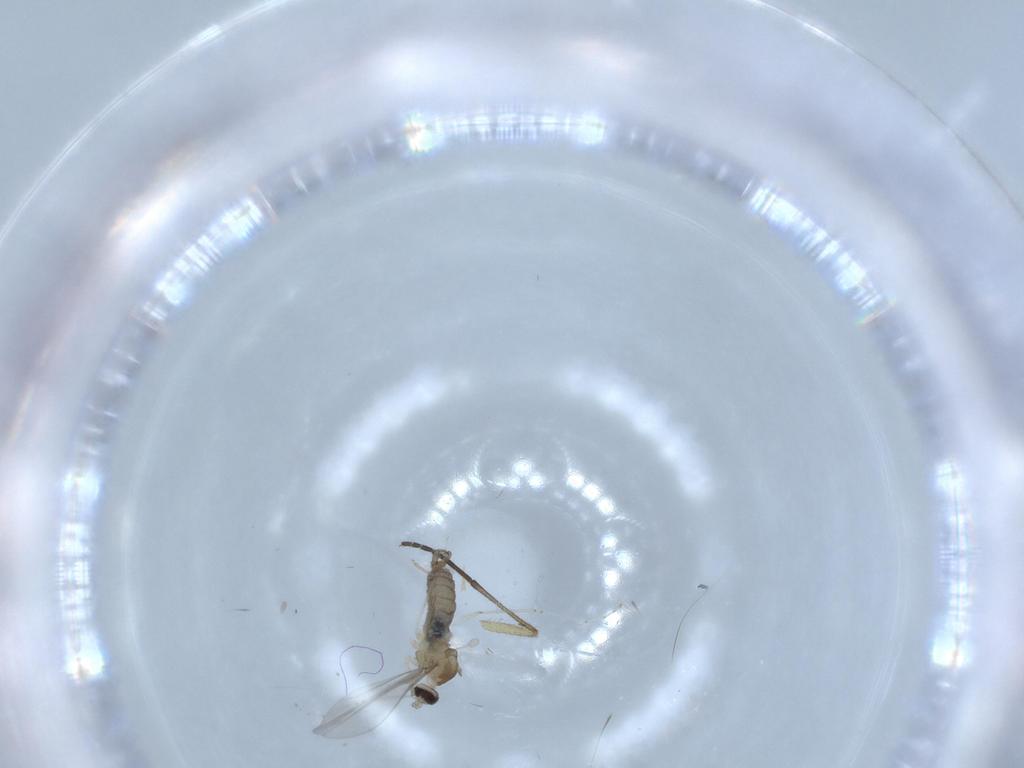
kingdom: Animalia
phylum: Arthropoda
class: Insecta
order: Diptera
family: Cecidomyiidae
